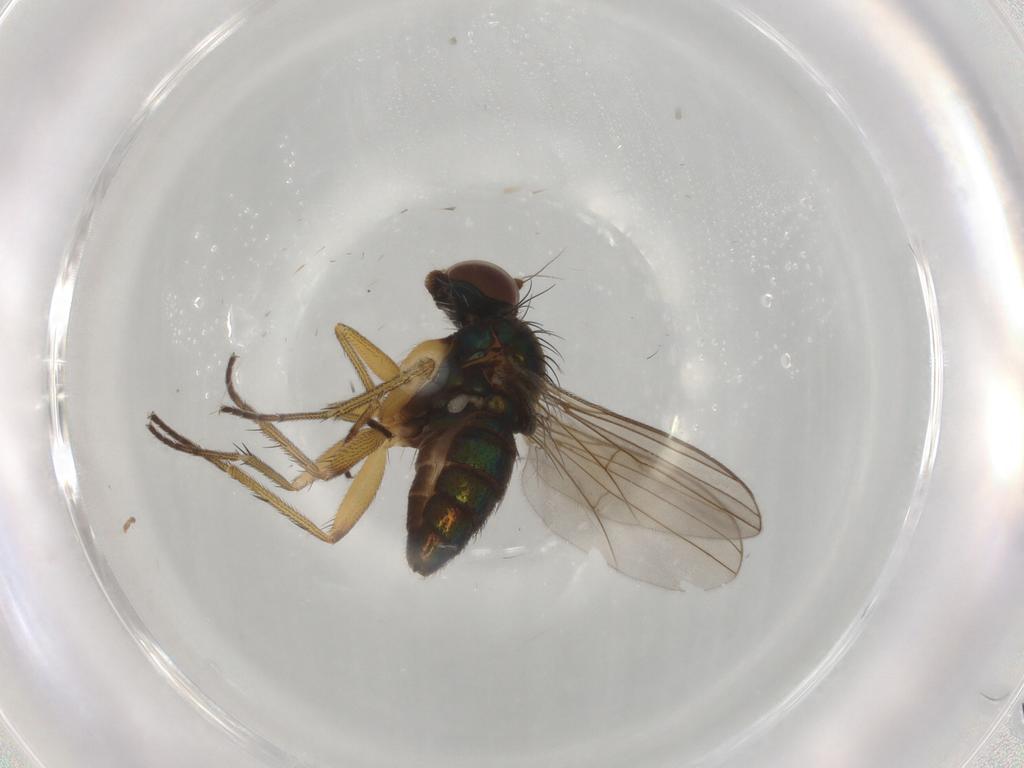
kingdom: Animalia
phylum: Arthropoda
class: Insecta
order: Diptera
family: Dolichopodidae
